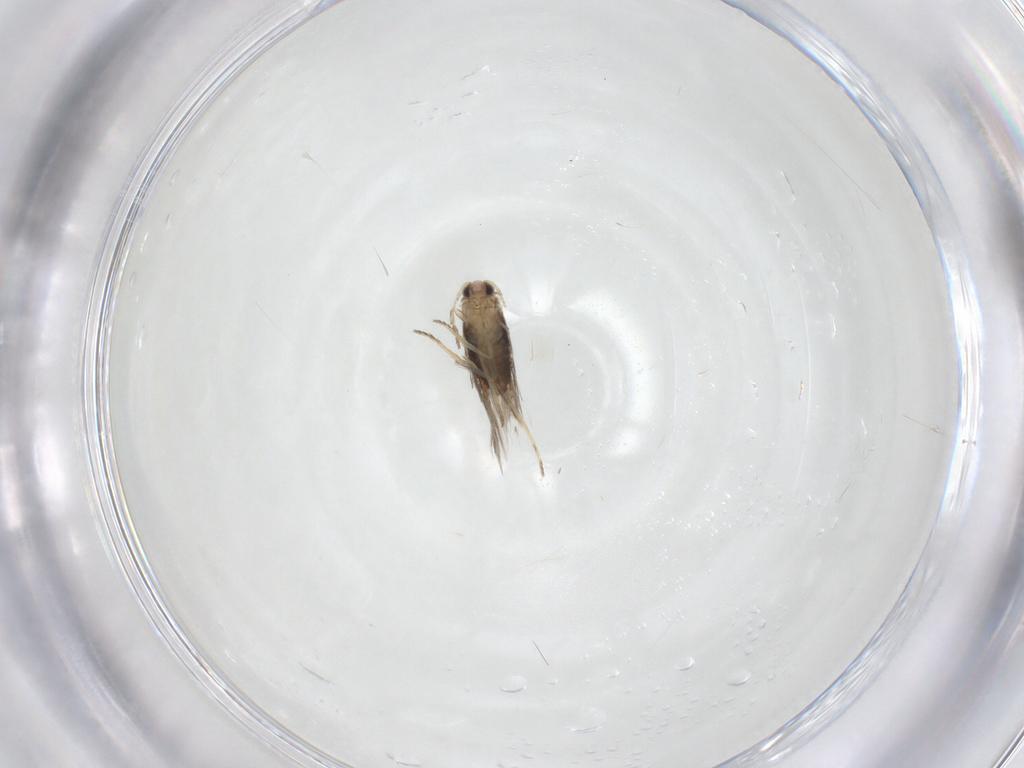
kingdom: Animalia
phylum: Arthropoda
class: Insecta
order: Lepidoptera
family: Nepticulidae
